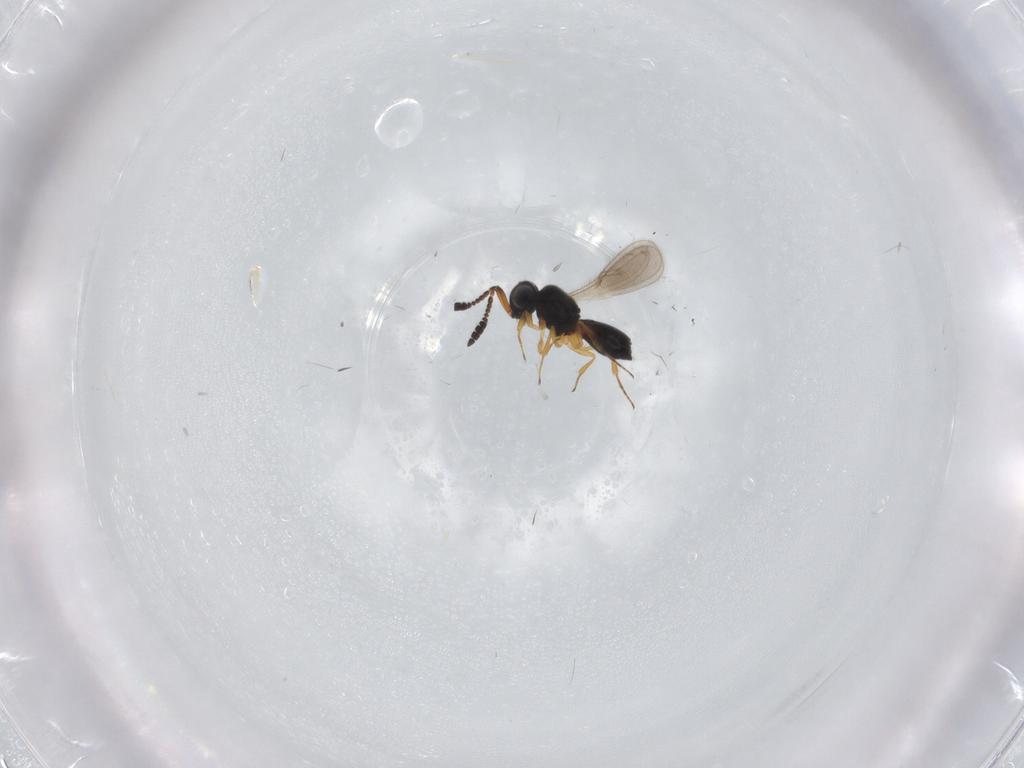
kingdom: Animalia
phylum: Arthropoda
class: Insecta
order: Hymenoptera
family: Scelionidae
